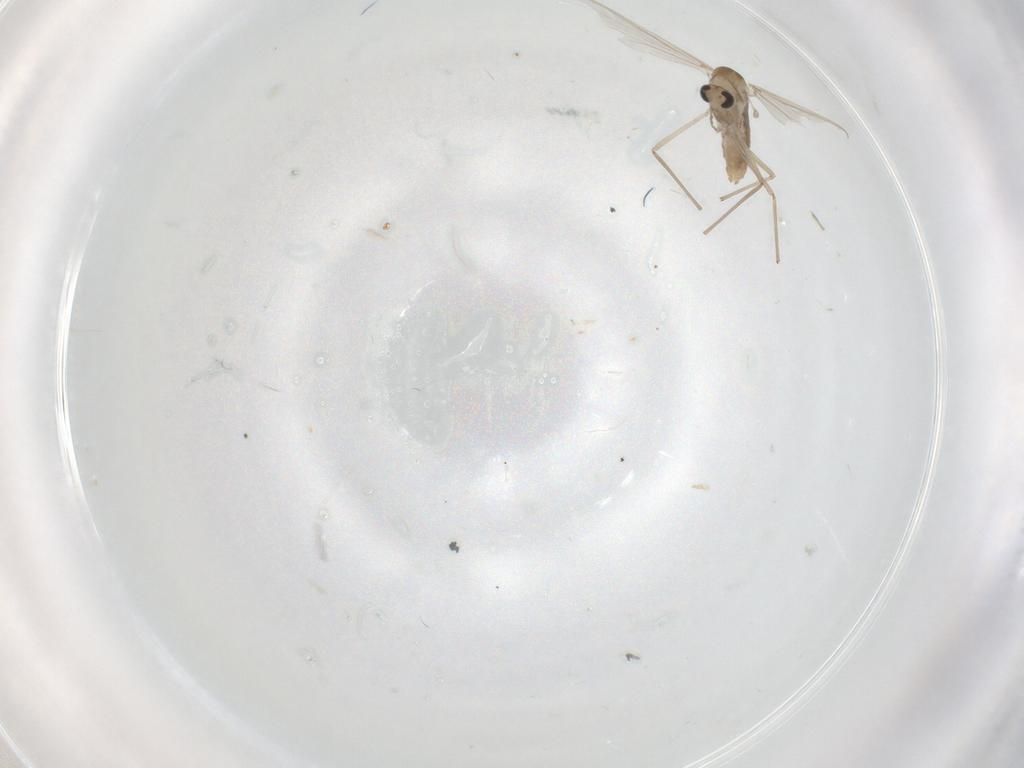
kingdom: Animalia
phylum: Arthropoda
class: Insecta
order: Diptera
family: Chironomidae
